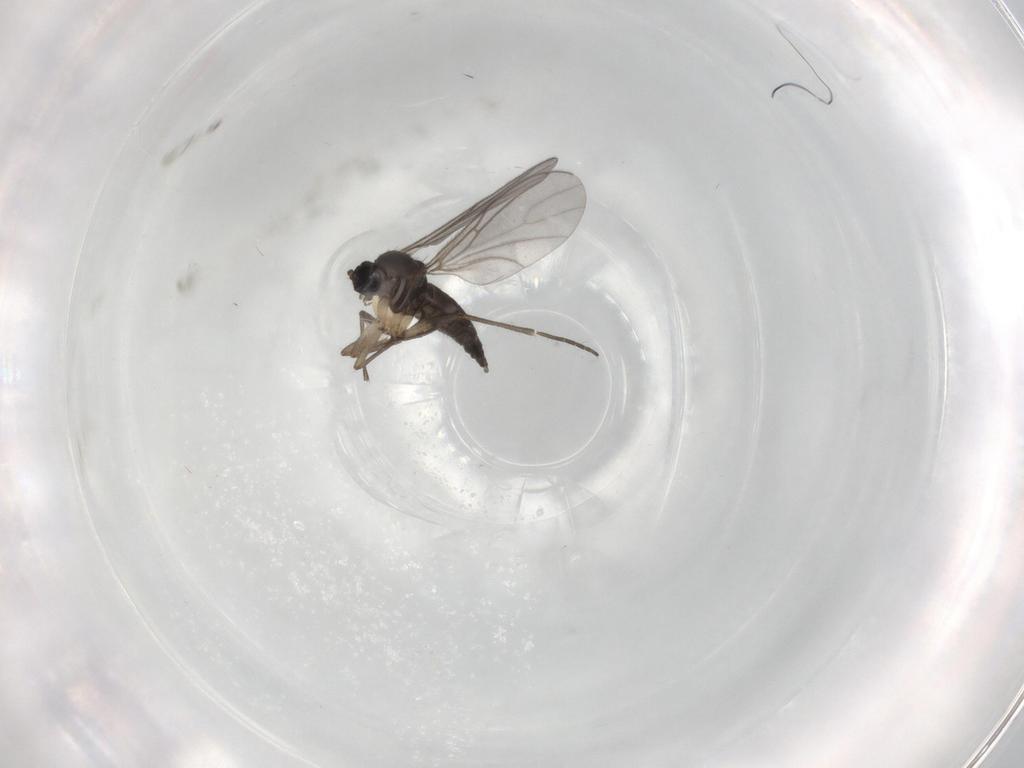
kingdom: Animalia
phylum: Arthropoda
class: Insecta
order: Diptera
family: Sciaridae
